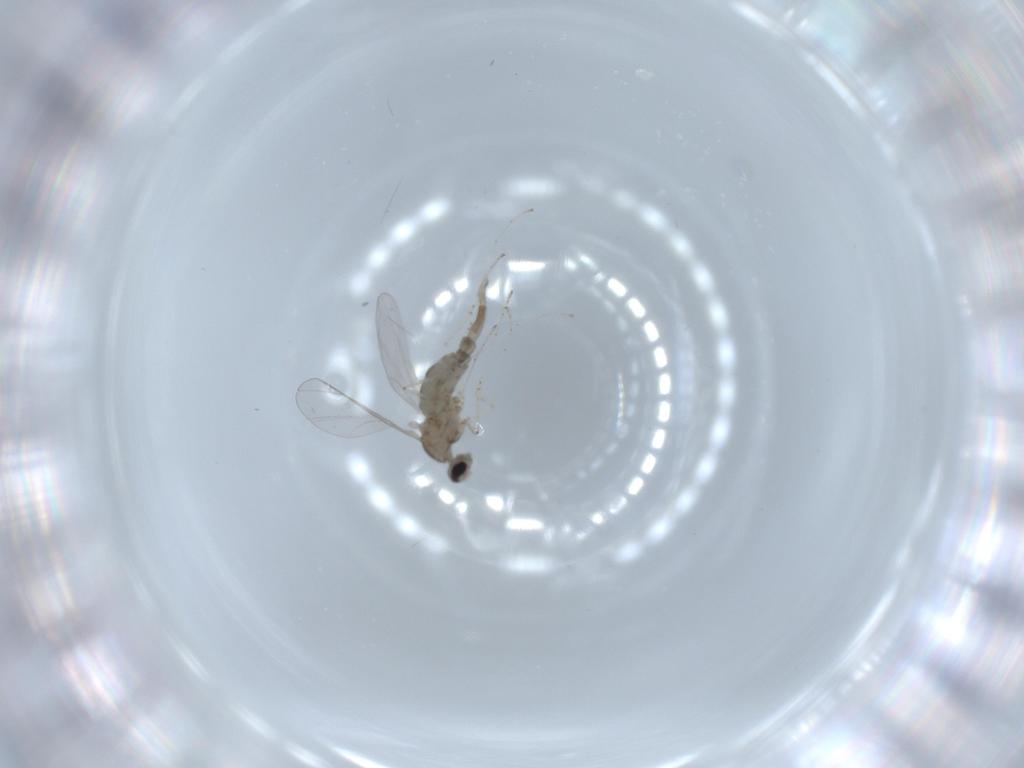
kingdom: Animalia
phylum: Arthropoda
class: Insecta
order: Diptera
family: Cecidomyiidae
